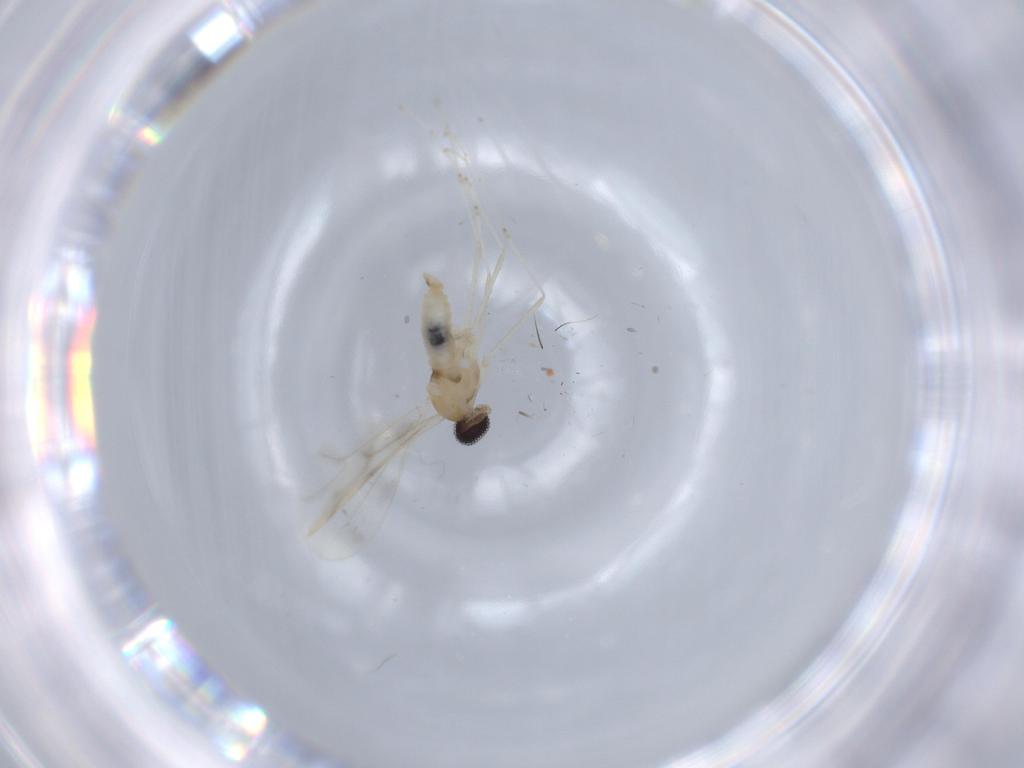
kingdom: Animalia
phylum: Arthropoda
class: Insecta
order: Diptera
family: Cecidomyiidae
